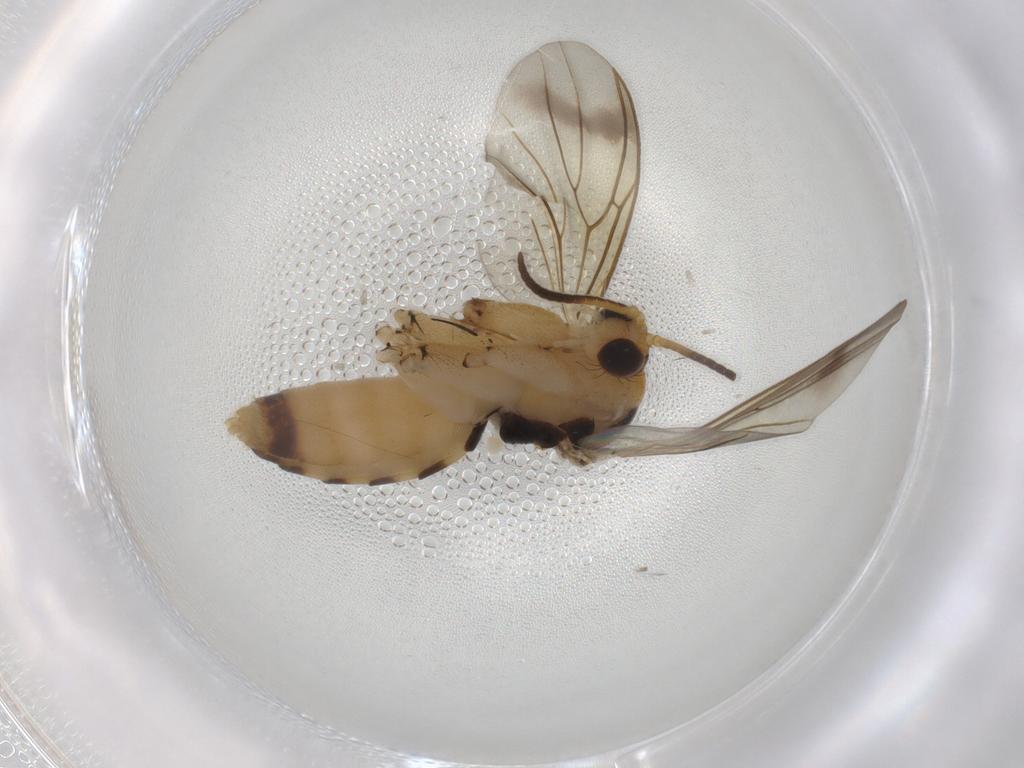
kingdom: Animalia
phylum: Arthropoda
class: Insecta
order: Diptera
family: Mycetophilidae
